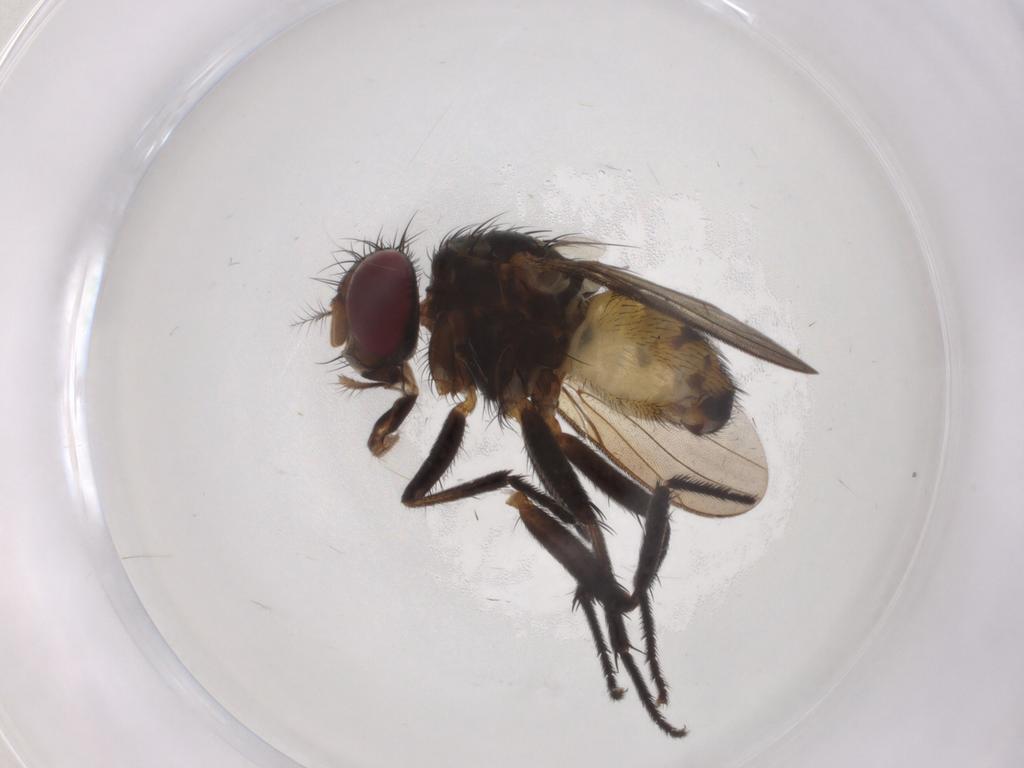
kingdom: Animalia
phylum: Arthropoda
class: Insecta
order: Diptera
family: Anthomyiidae
